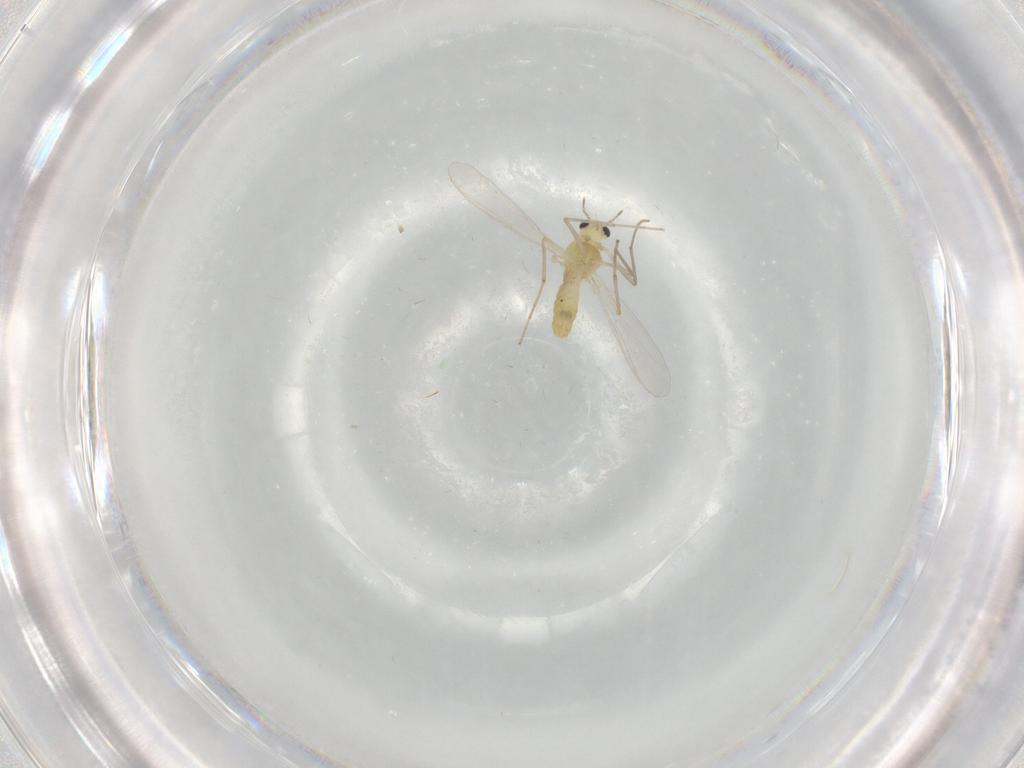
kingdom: Animalia
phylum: Arthropoda
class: Insecta
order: Diptera
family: Chironomidae
